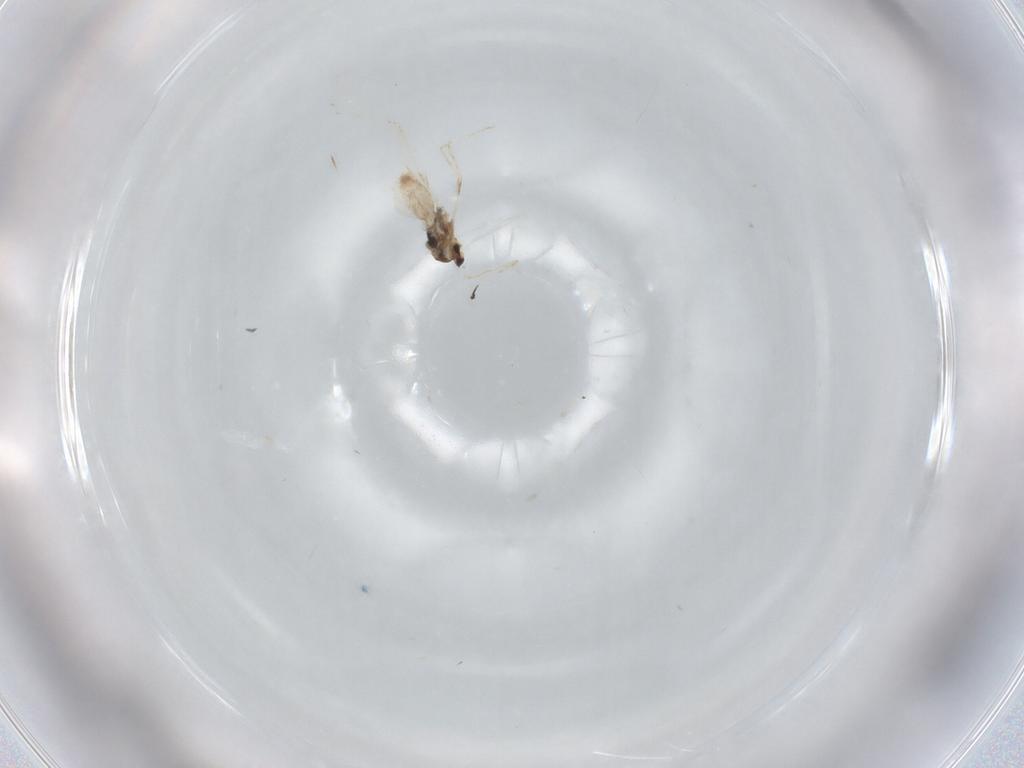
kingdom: Animalia
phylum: Arthropoda
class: Insecta
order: Diptera
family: Cecidomyiidae
